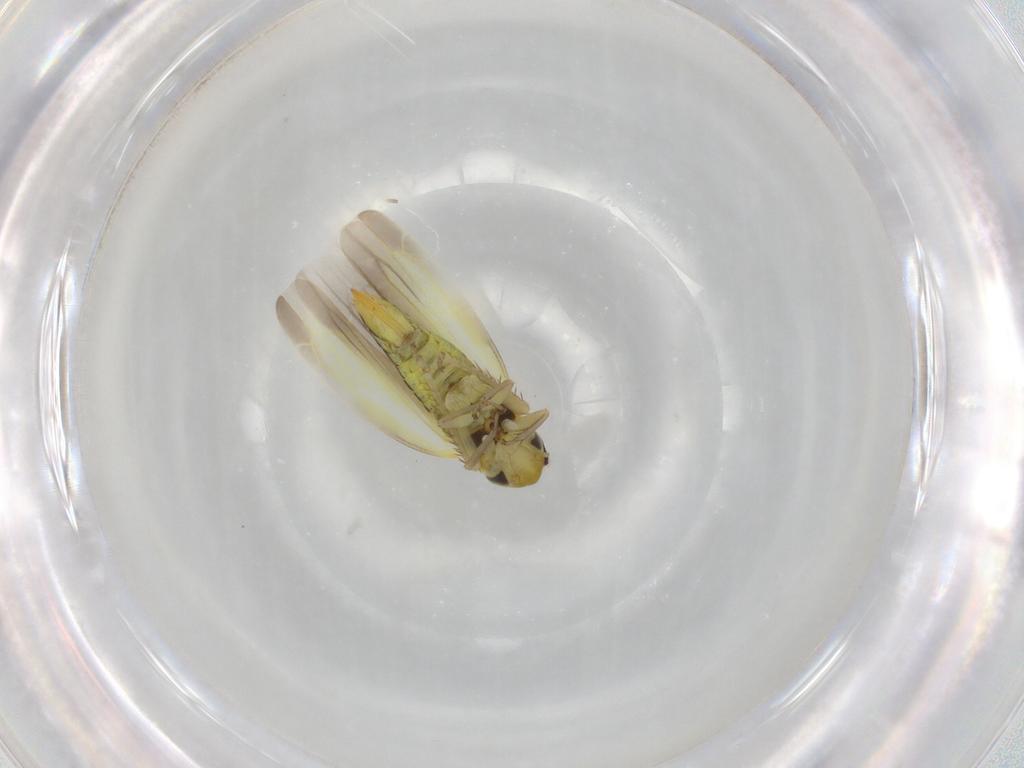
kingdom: Animalia
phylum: Arthropoda
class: Insecta
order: Hemiptera
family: Cicadellidae
